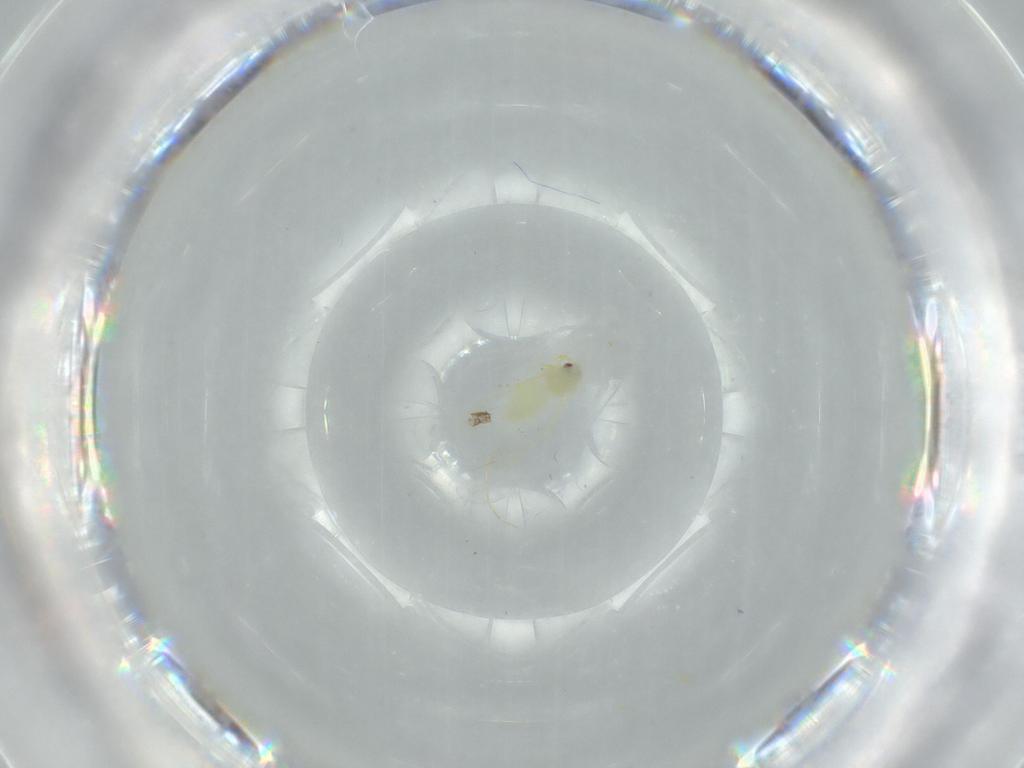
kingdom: Animalia
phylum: Arthropoda
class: Insecta
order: Hemiptera
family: Aleyrodidae
